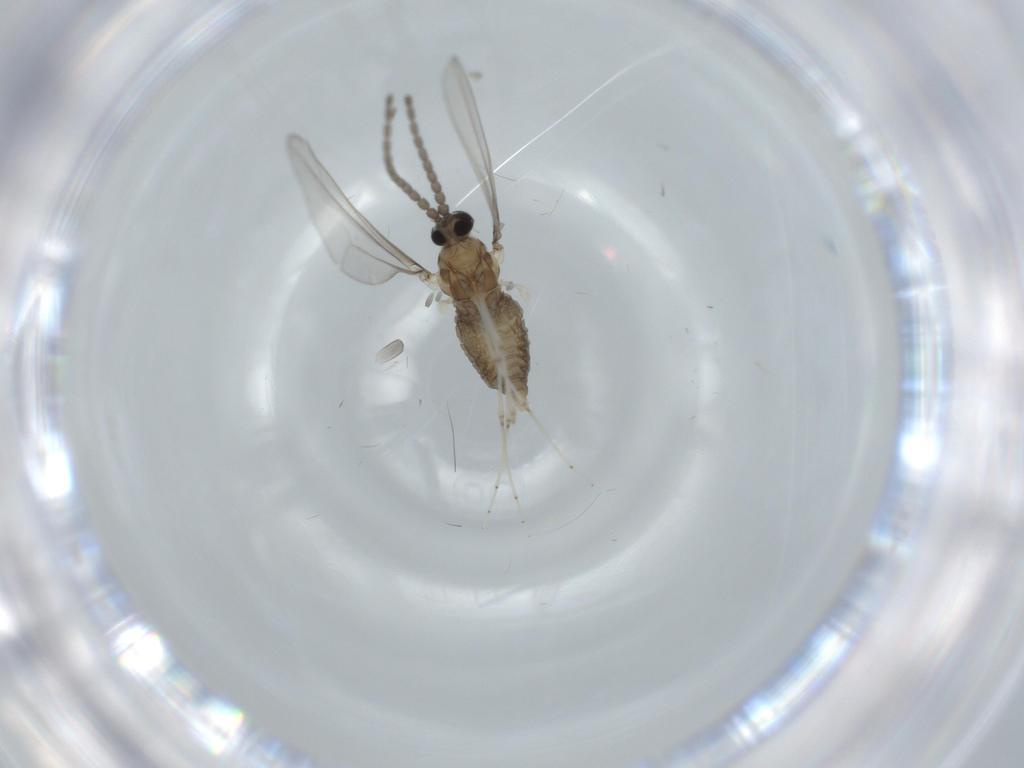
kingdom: Animalia
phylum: Arthropoda
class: Insecta
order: Diptera
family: Cecidomyiidae
